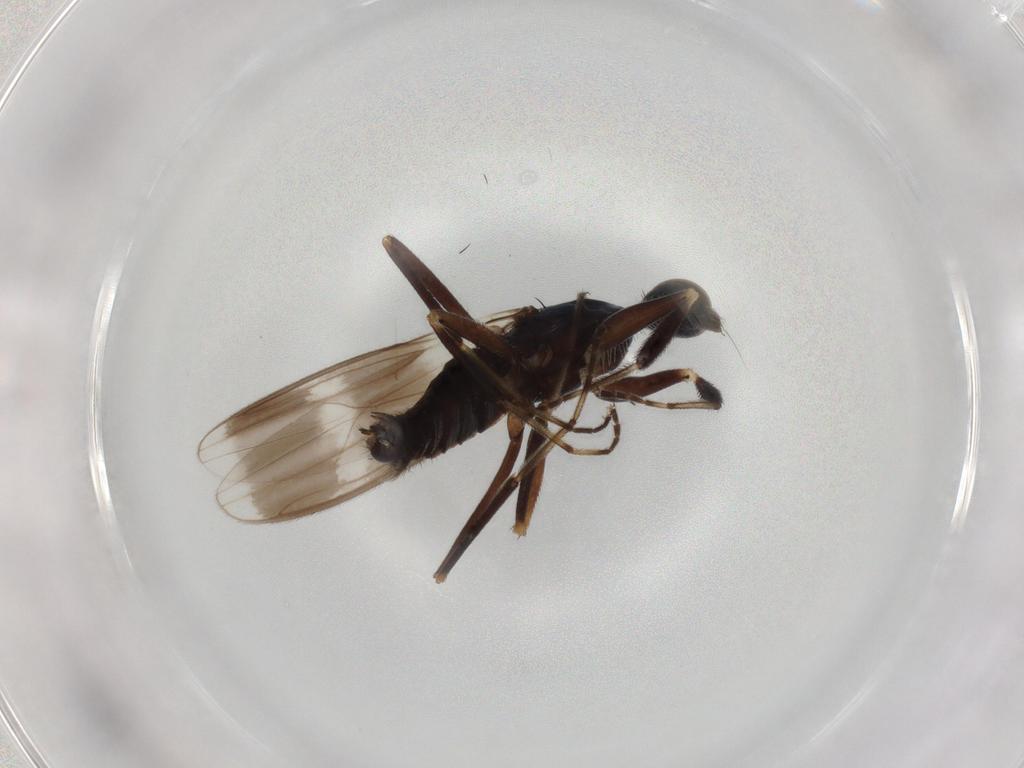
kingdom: Animalia
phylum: Arthropoda
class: Insecta
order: Diptera
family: Hybotidae
